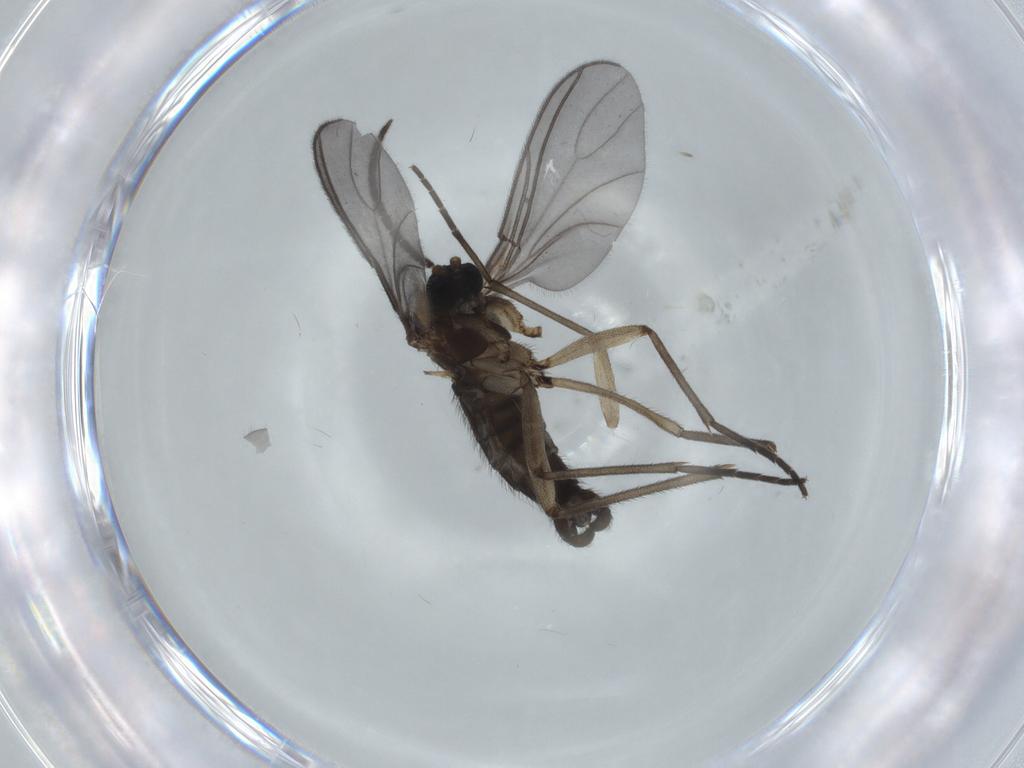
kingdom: Animalia
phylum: Arthropoda
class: Insecta
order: Diptera
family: Sciaridae
